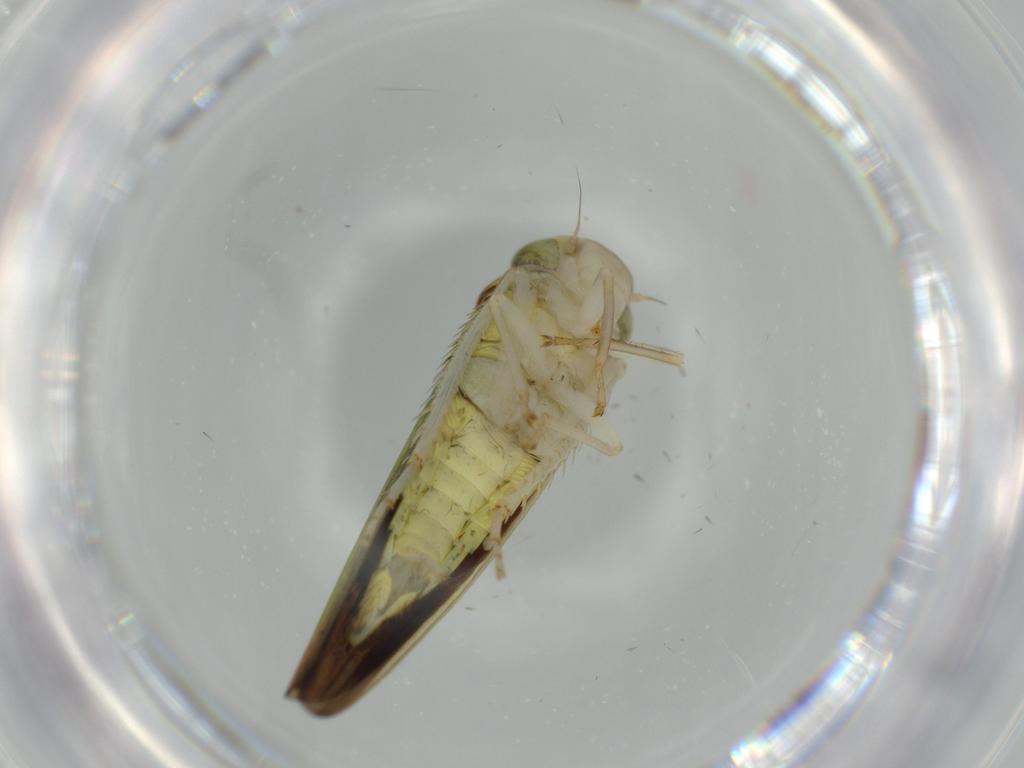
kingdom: Animalia
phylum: Arthropoda
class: Insecta
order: Hemiptera
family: Cicadellidae
